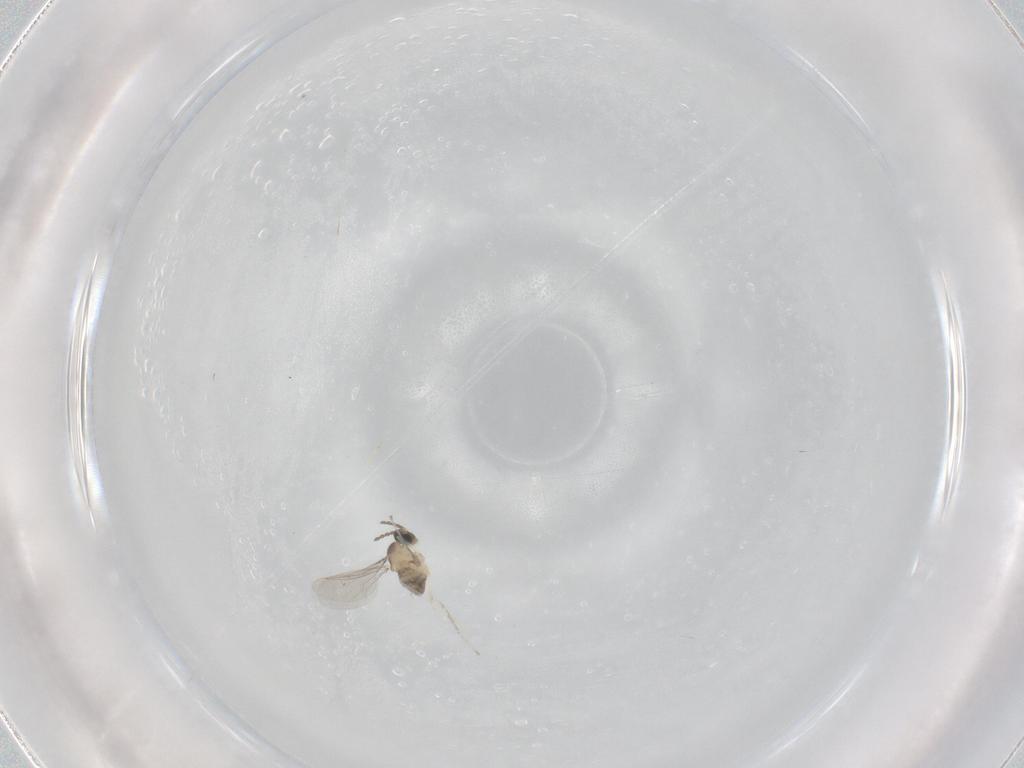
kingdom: Animalia
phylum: Arthropoda
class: Insecta
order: Diptera
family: Cecidomyiidae
